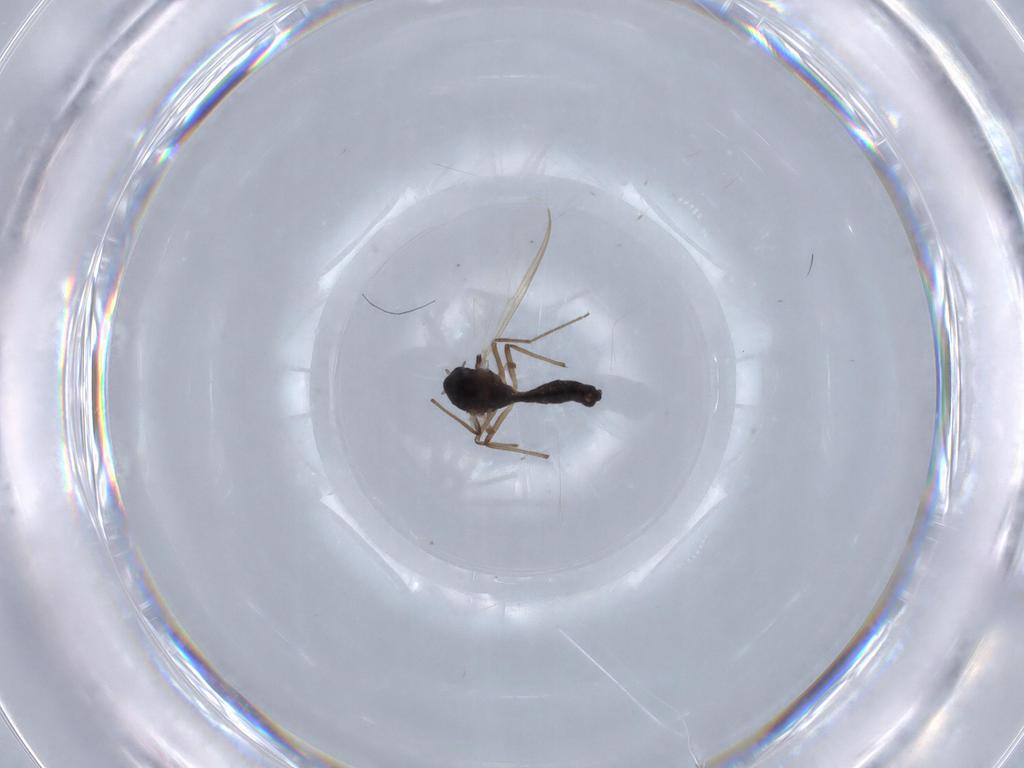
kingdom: Animalia
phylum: Arthropoda
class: Insecta
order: Diptera
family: Chironomidae
